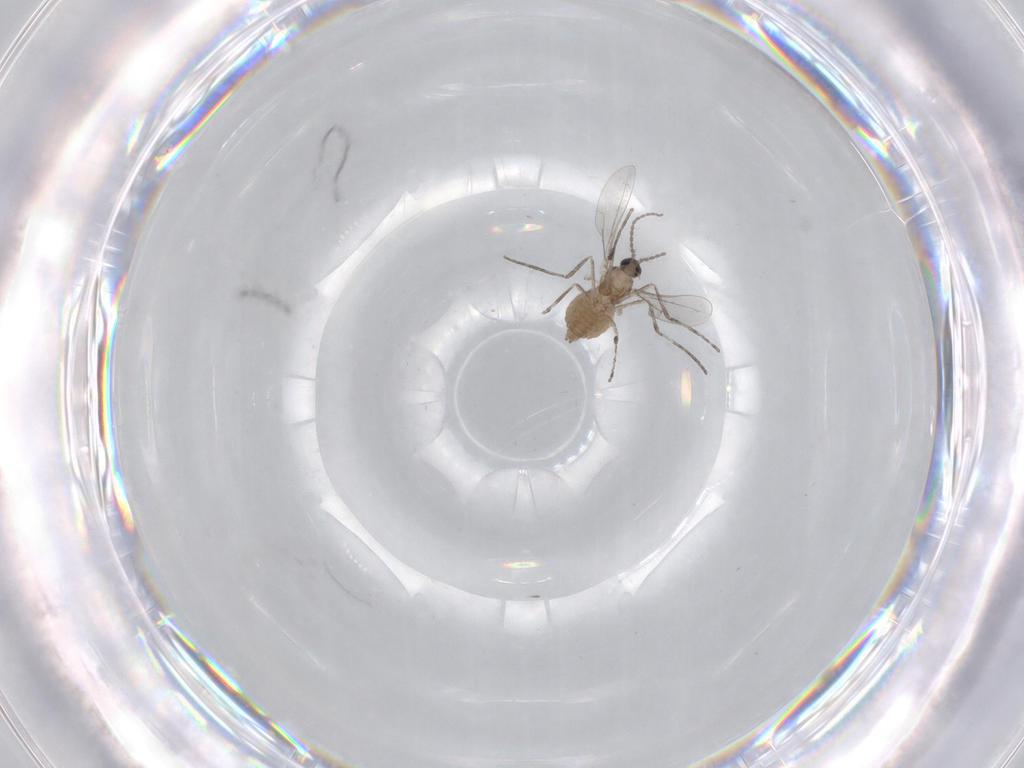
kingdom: Animalia
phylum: Arthropoda
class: Insecta
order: Diptera
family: Cecidomyiidae
